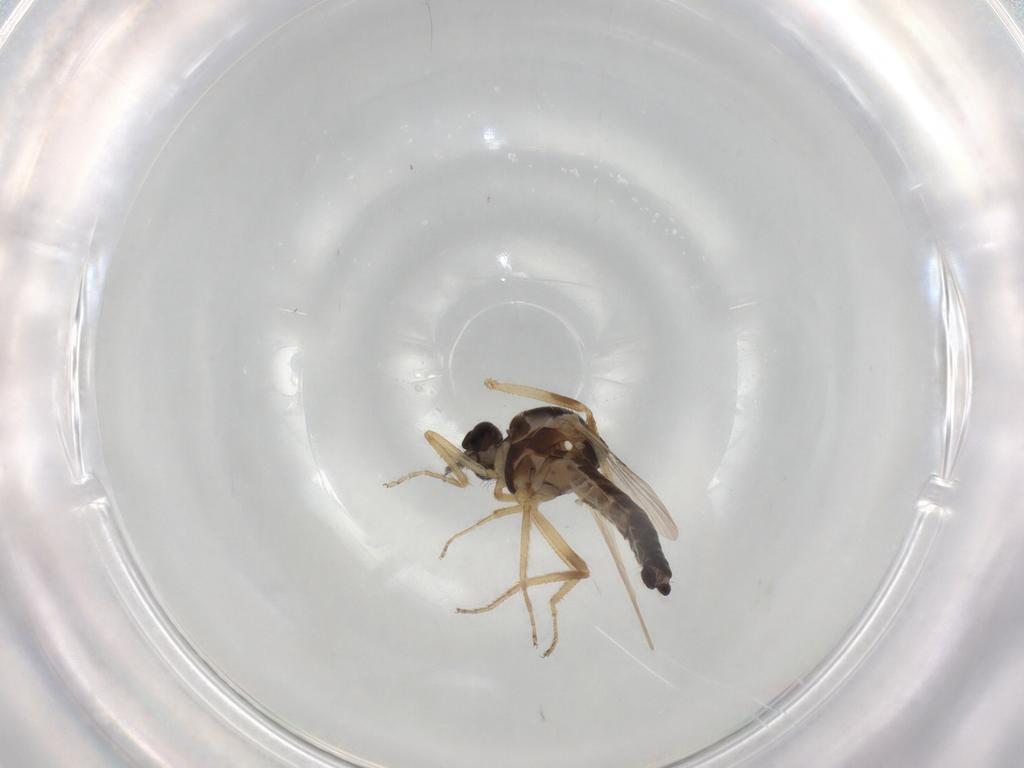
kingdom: Animalia
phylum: Arthropoda
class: Insecta
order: Diptera
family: Ceratopogonidae
